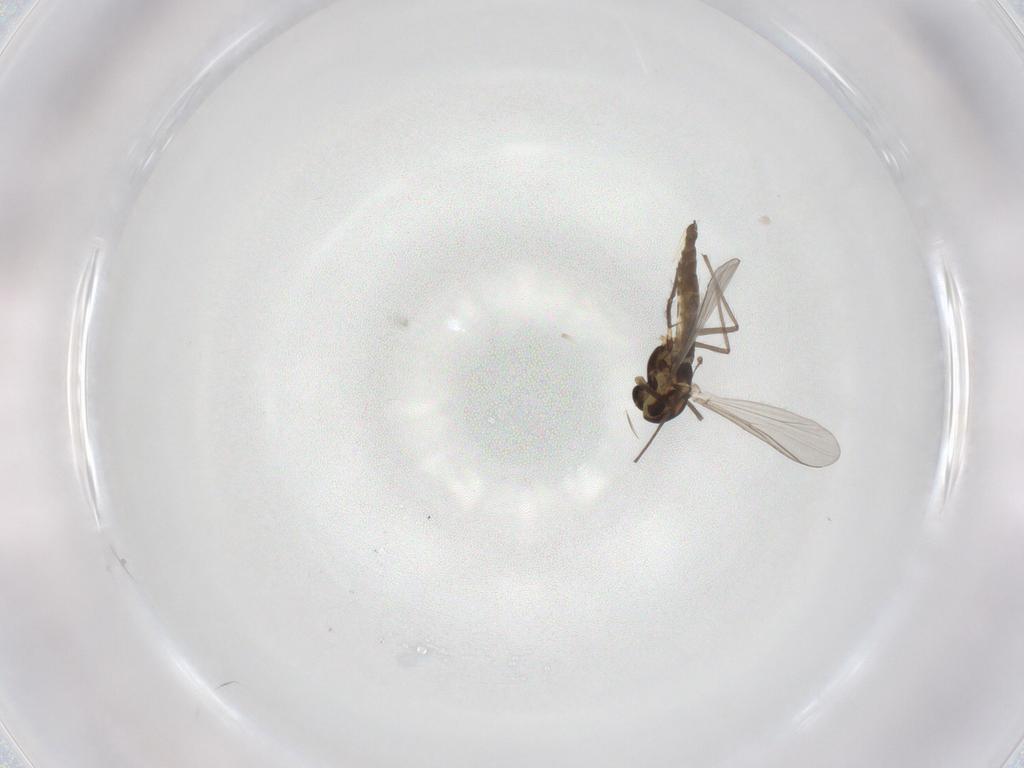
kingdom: Animalia
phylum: Arthropoda
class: Insecta
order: Diptera
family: Chironomidae
